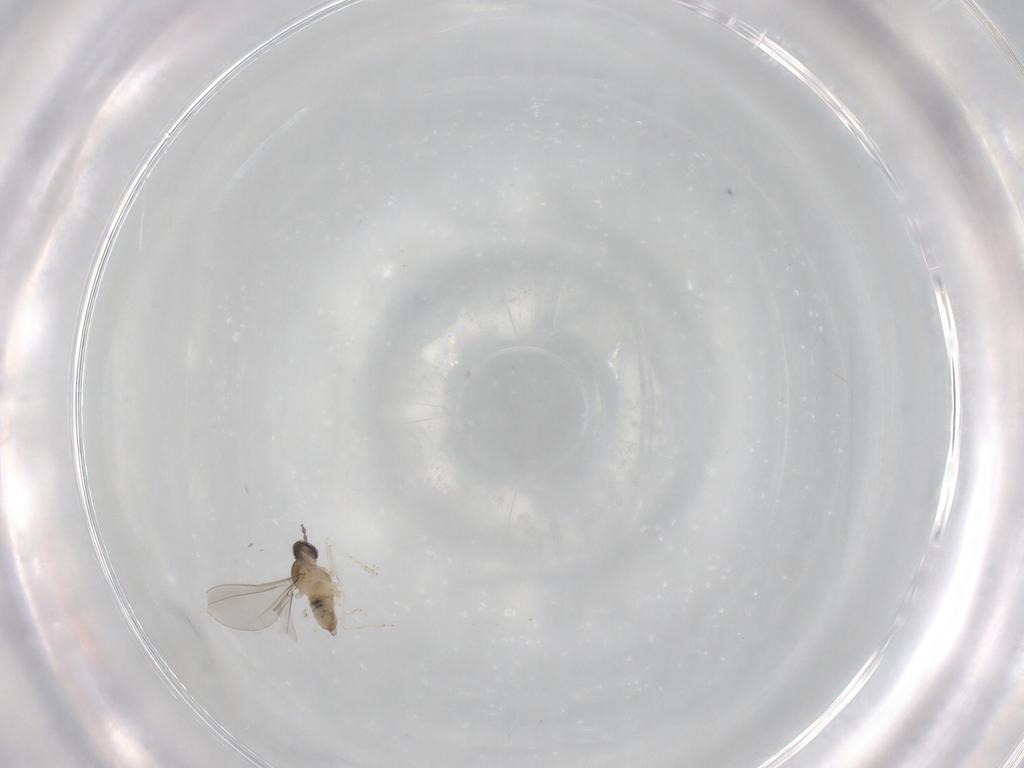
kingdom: Animalia
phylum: Arthropoda
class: Insecta
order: Diptera
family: Cecidomyiidae
